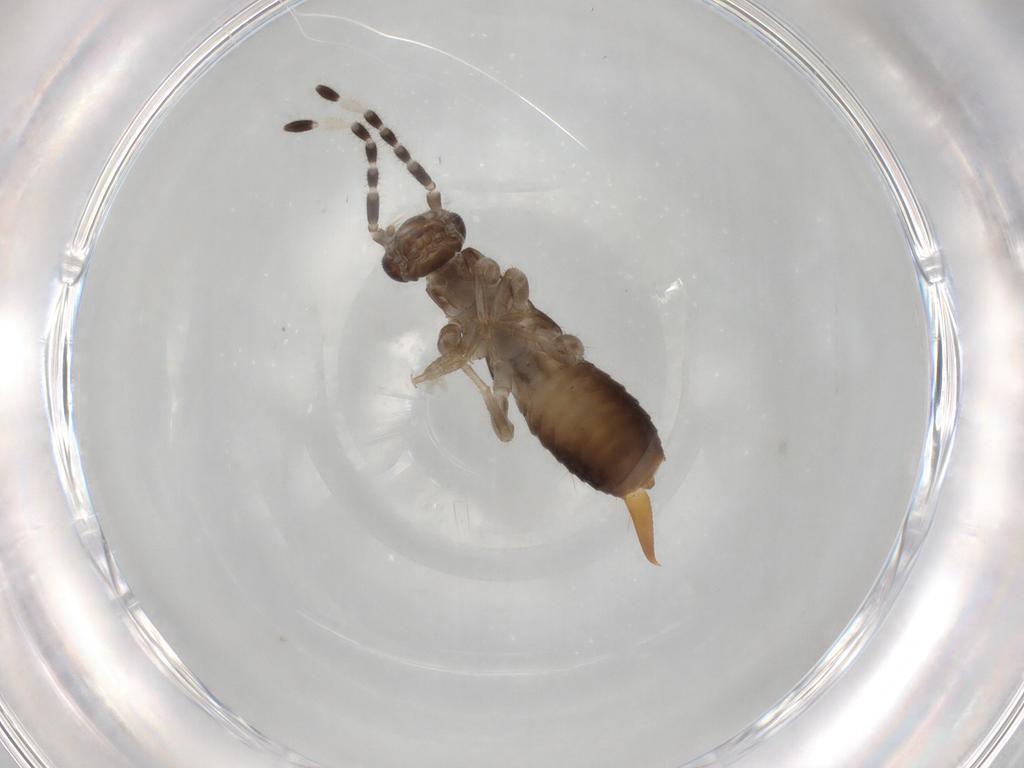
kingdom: Animalia
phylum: Arthropoda
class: Insecta
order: Dermaptera
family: Anisolabididae
